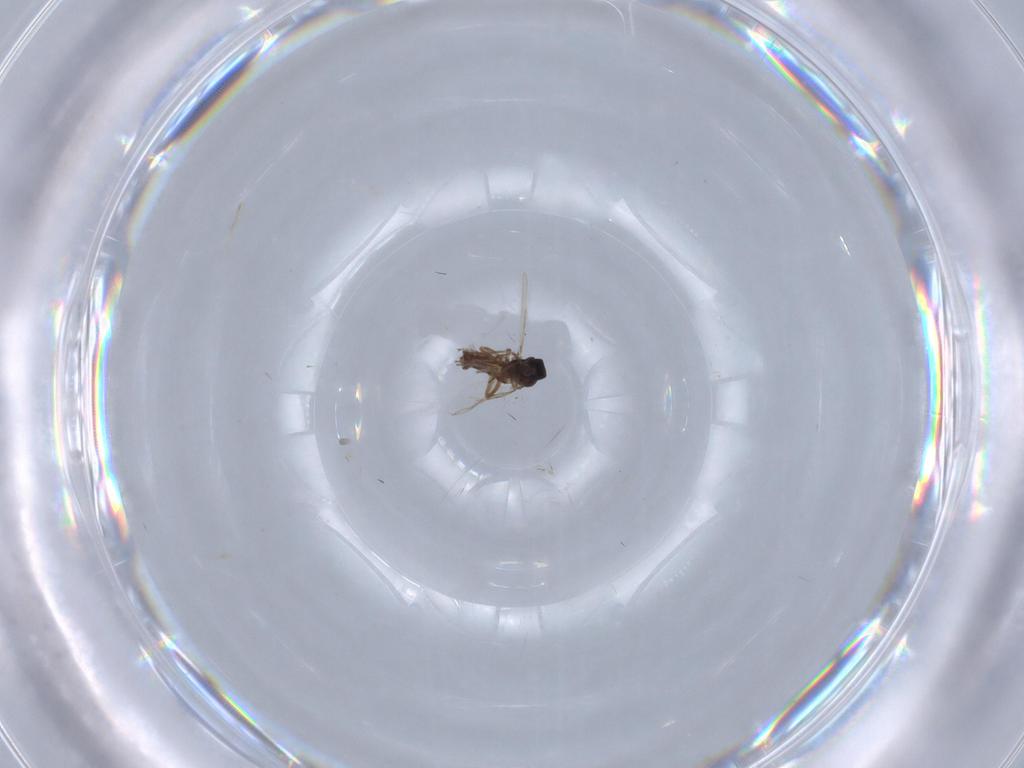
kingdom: Animalia
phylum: Arthropoda
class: Insecta
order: Diptera
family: Ceratopogonidae
